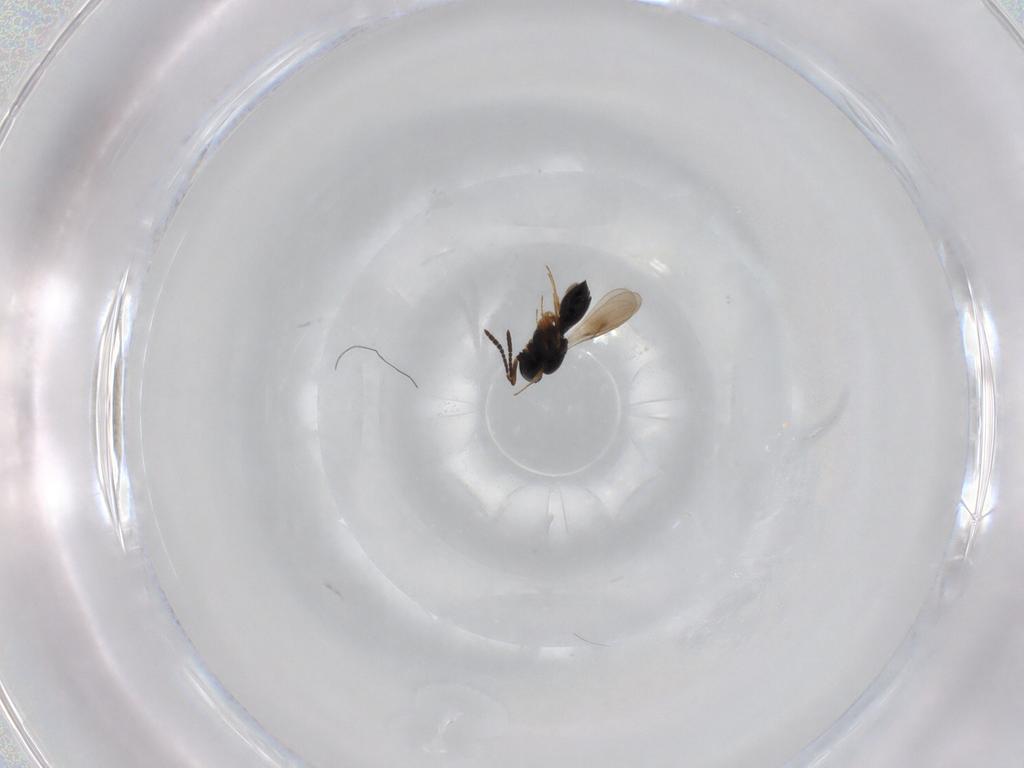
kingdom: Animalia
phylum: Arthropoda
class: Insecta
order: Hymenoptera
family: Scelionidae
